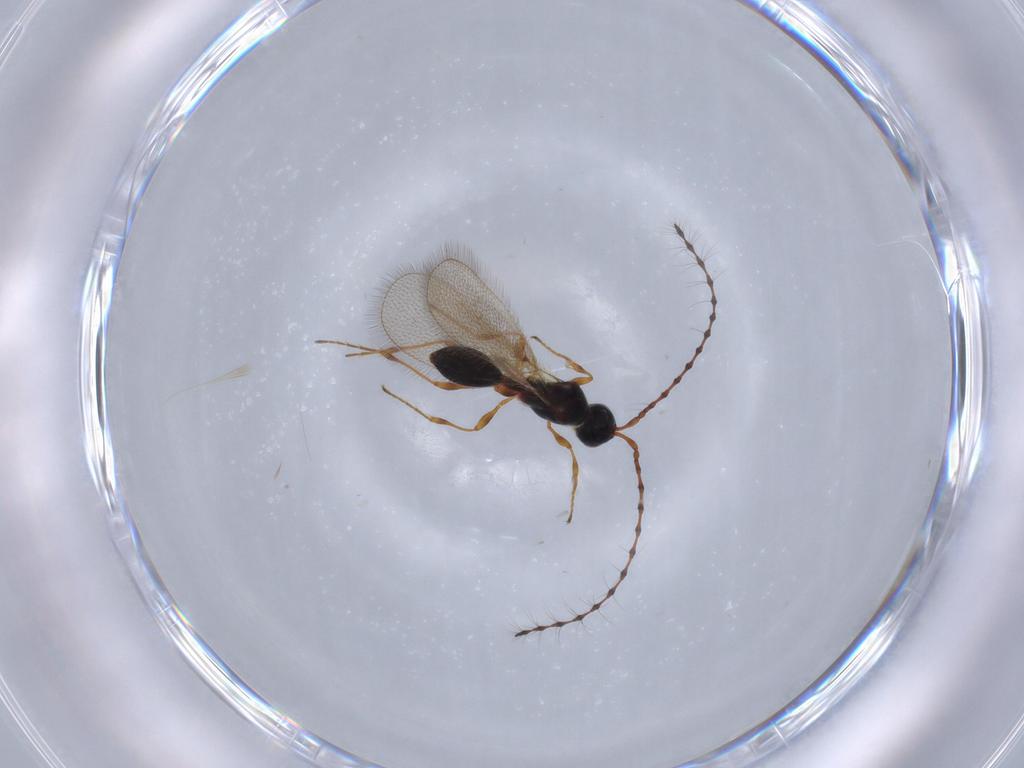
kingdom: Animalia
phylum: Arthropoda
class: Insecta
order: Hymenoptera
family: Diapriidae
